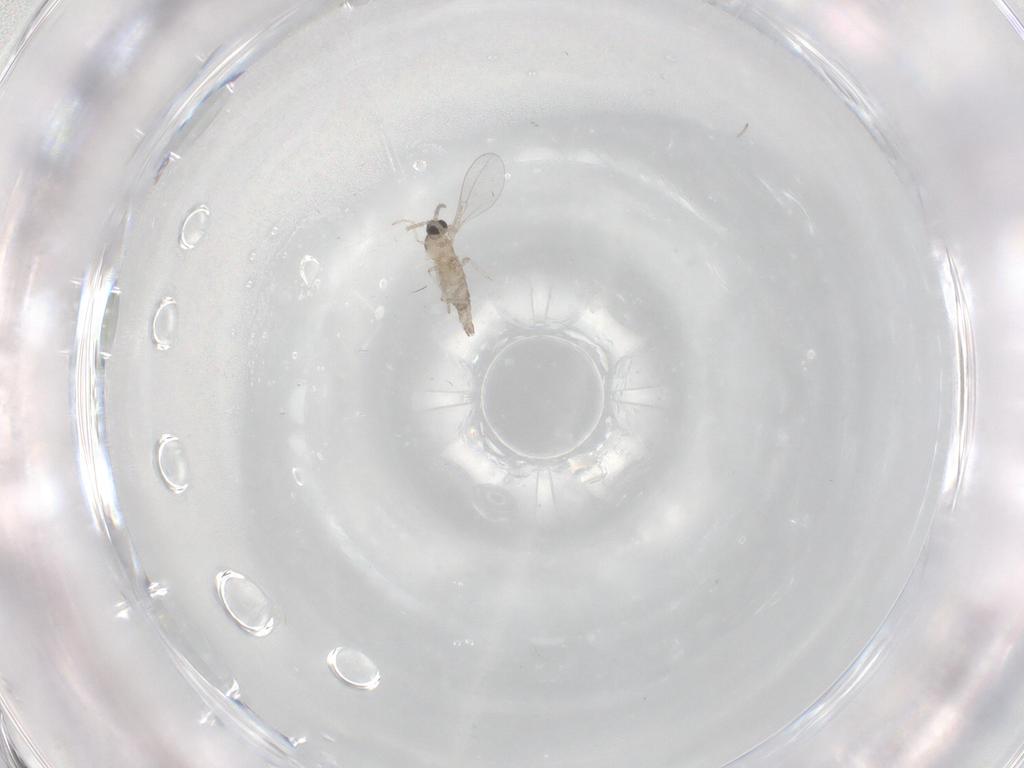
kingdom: Animalia
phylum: Arthropoda
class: Insecta
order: Diptera
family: Cecidomyiidae
